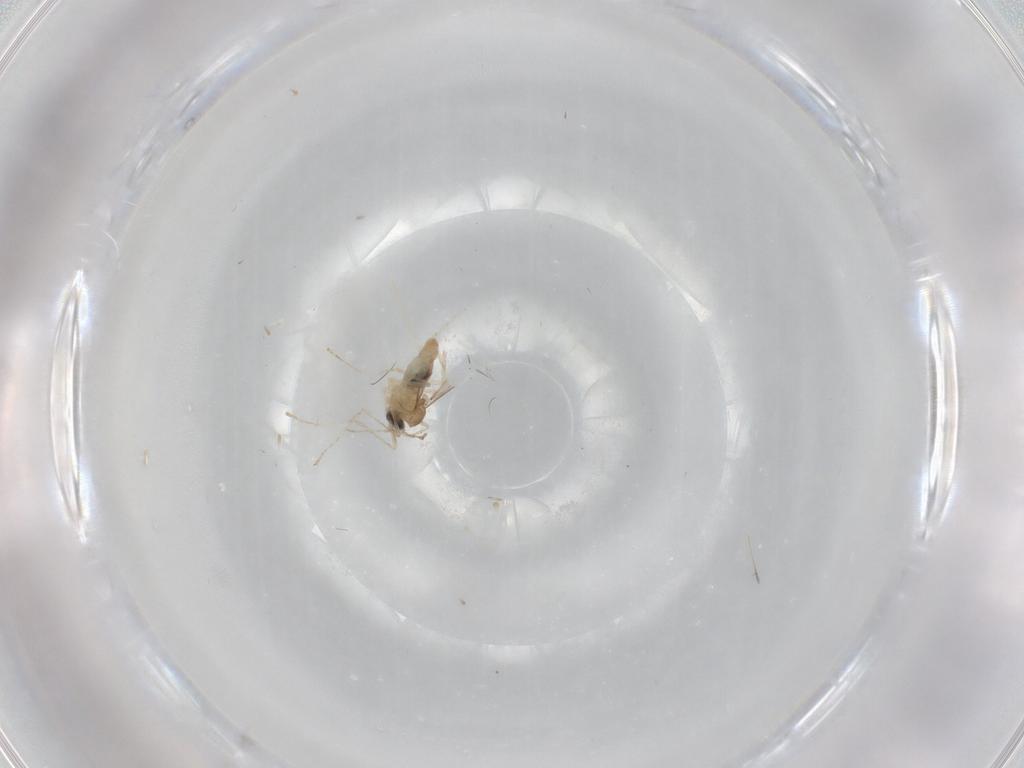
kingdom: Animalia
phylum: Arthropoda
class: Insecta
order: Diptera
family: Cecidomyiidae
